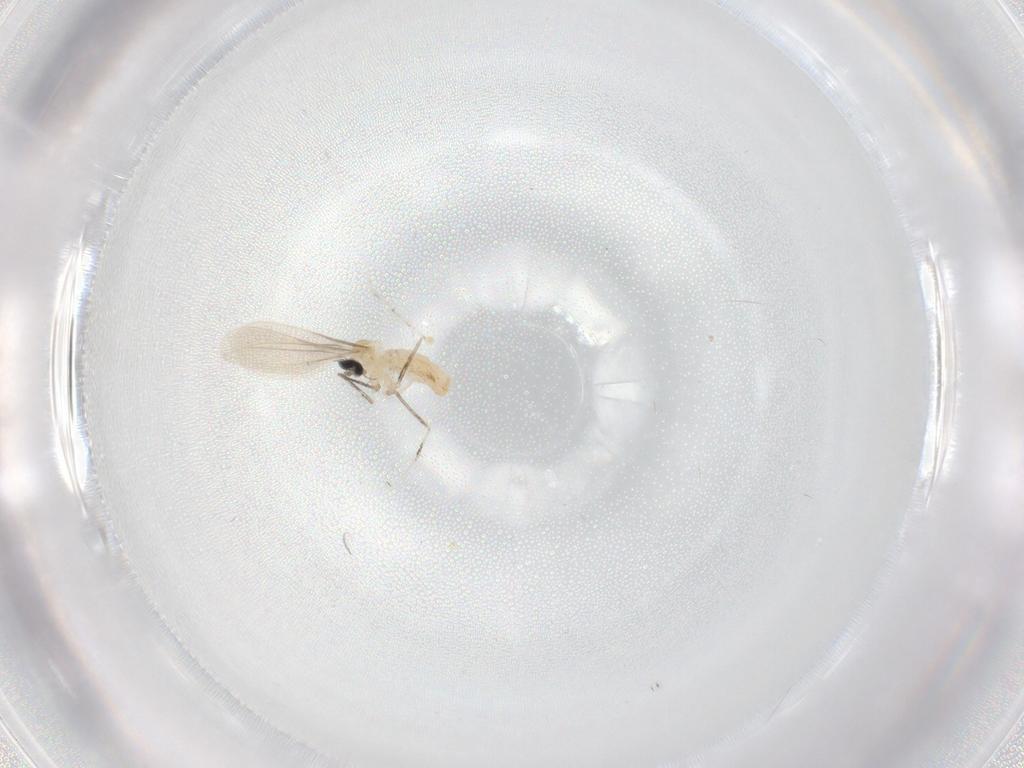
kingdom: Animalia
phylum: Arthropoda
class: Insecta
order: Diptera
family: Cecidomyiidae
